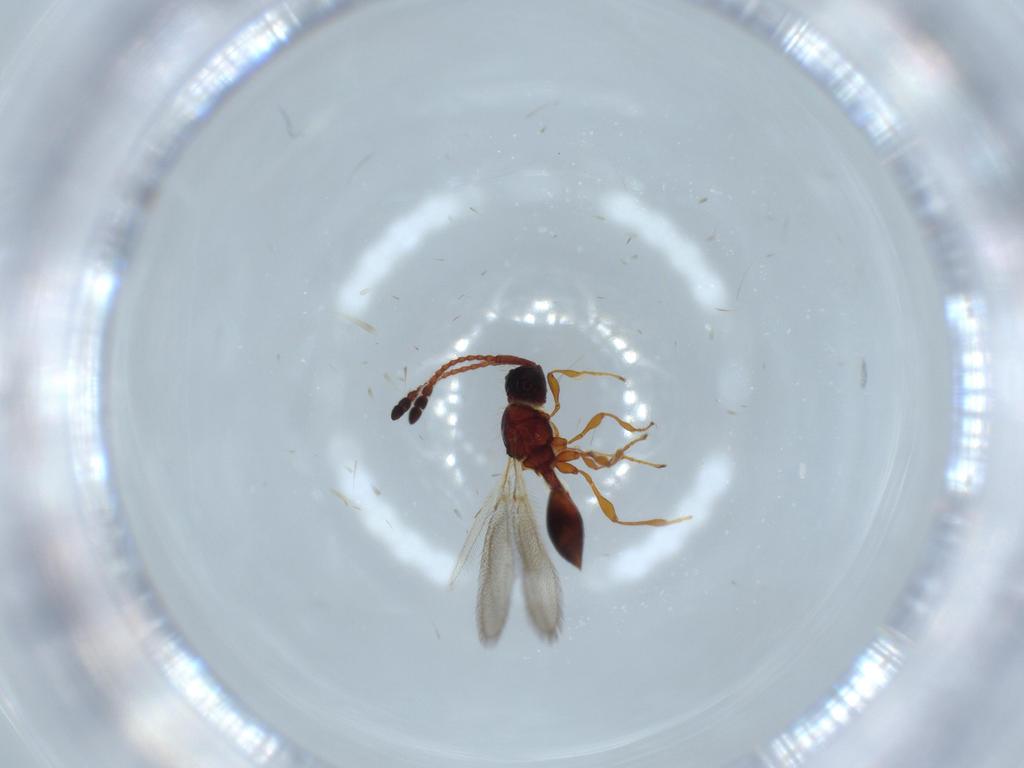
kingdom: Animalia
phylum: Arthropoda
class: Insecta
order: Hymenoptera
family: Diapriidae
